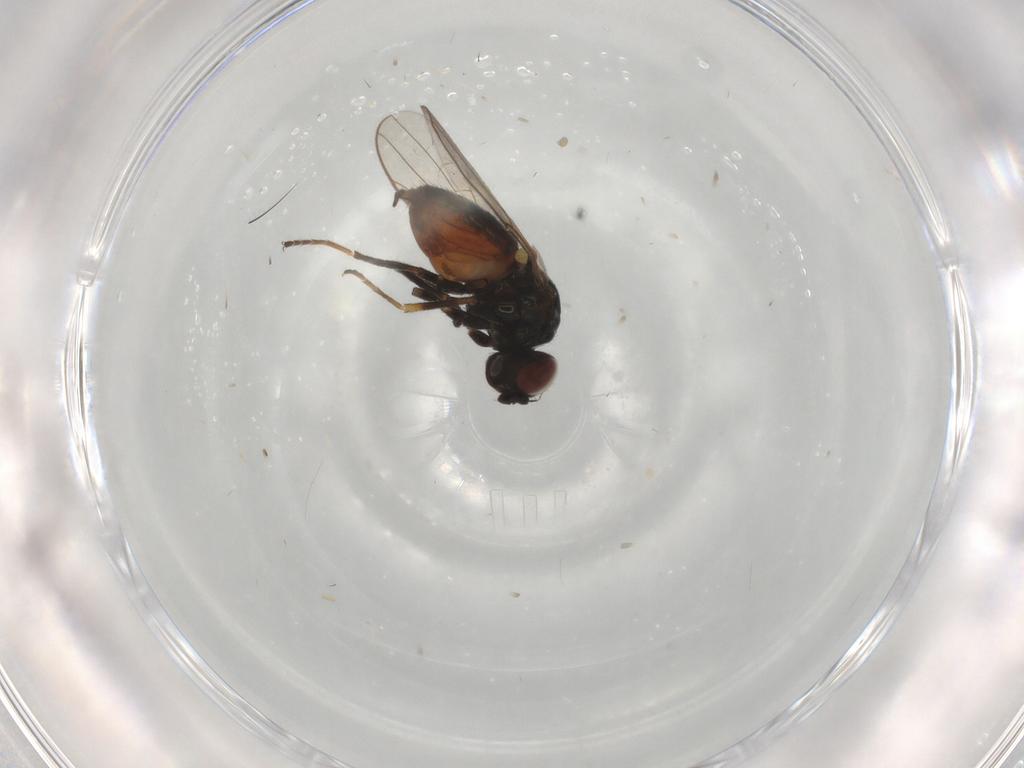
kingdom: Animalia
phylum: Arthropoda
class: Insecta
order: Diptera
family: Chloropidae
